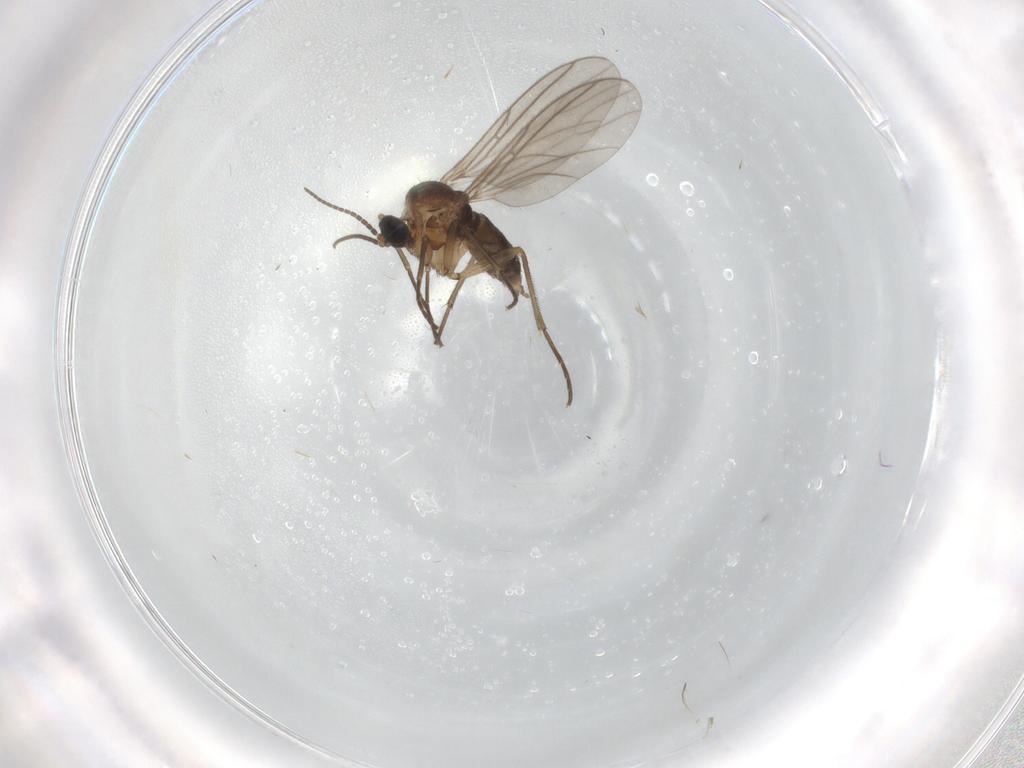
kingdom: Animalia
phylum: Arthropoda
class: Insecta
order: Diptera
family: Sciaridae
